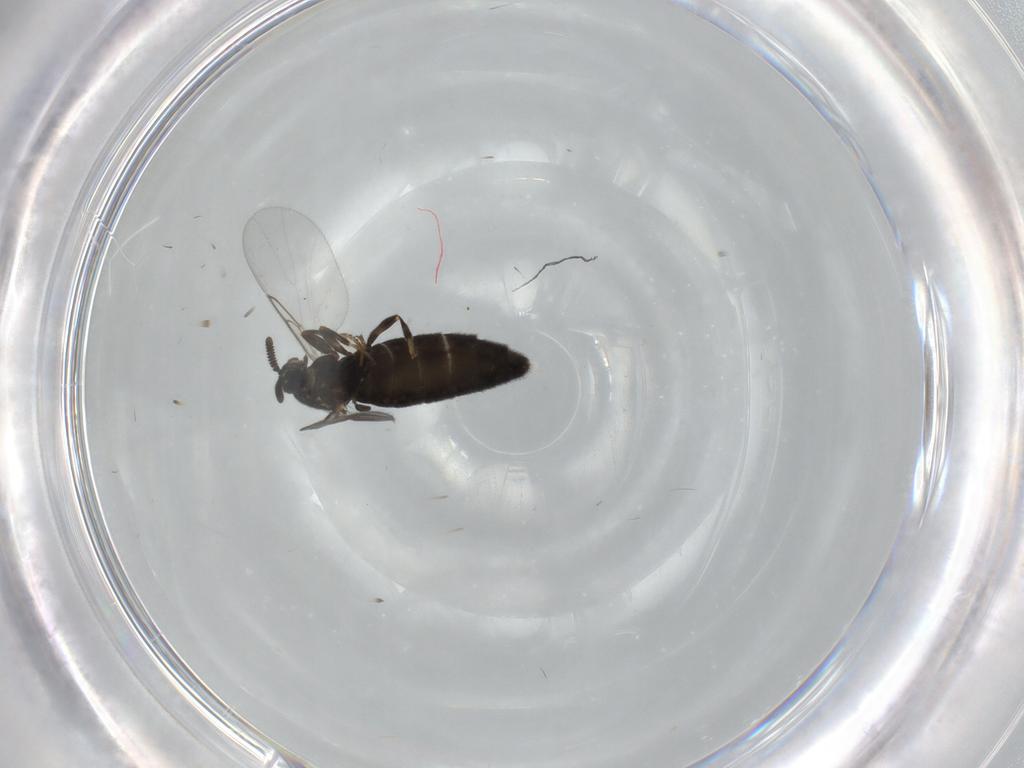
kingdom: Animalia
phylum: Arthropoda
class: Insecta
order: Diptera
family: Scatopsidae
